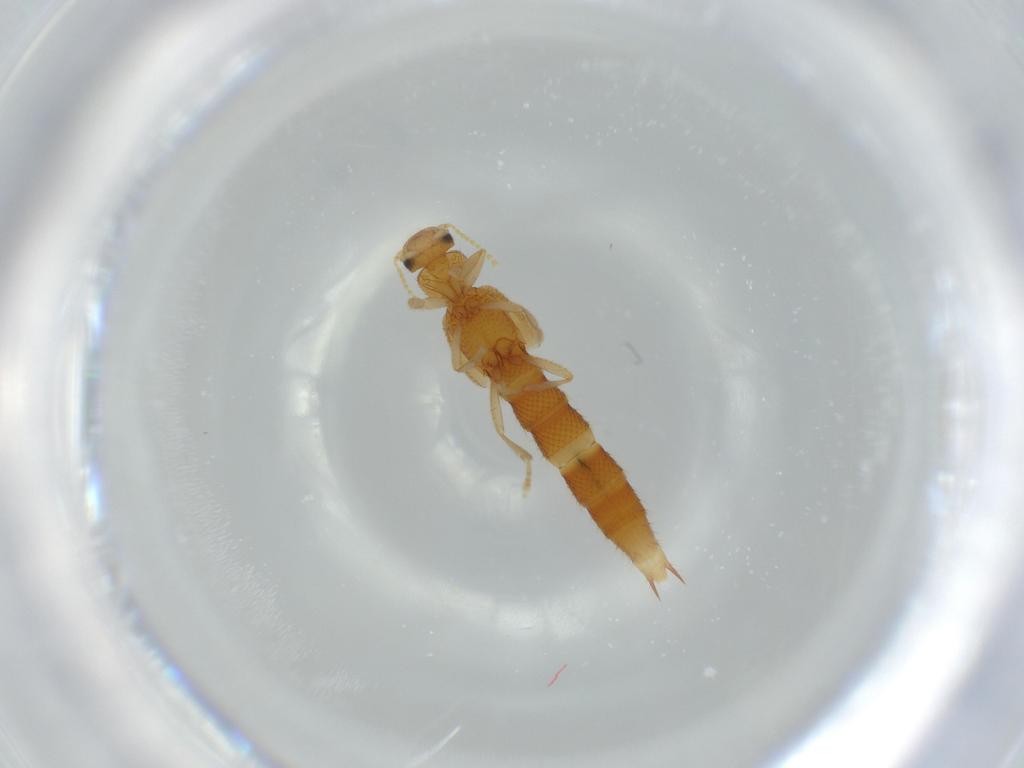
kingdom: Animalia
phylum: Arthropoda
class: Insecta
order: Coleoptera
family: Staphylinidae
